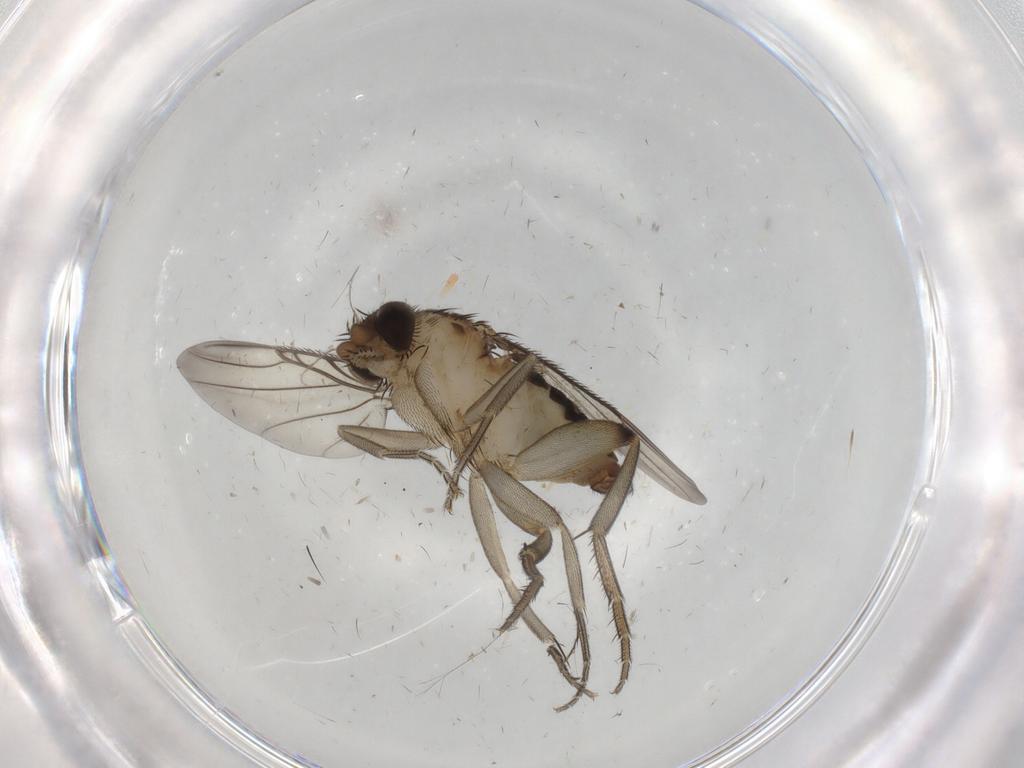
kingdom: Animalia
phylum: Arthropoda
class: Insecta
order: Diptera
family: Phoridae
